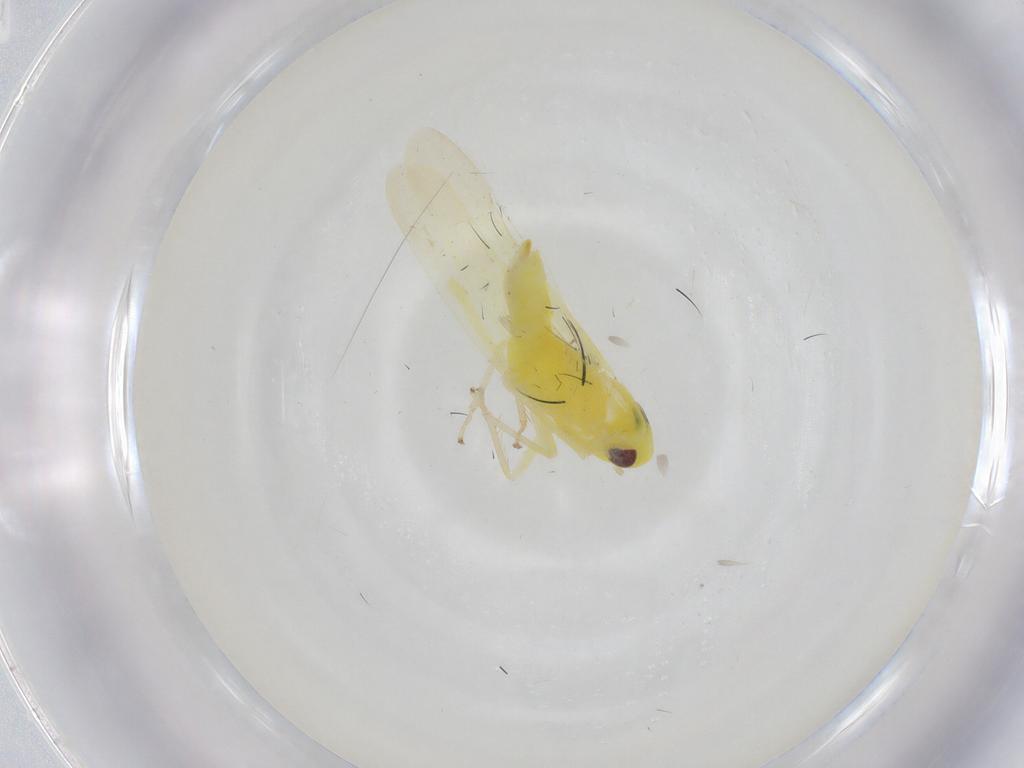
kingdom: Animalia
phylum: Arthropoda
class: Insecta
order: Hemiptera
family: Cicadellidae
